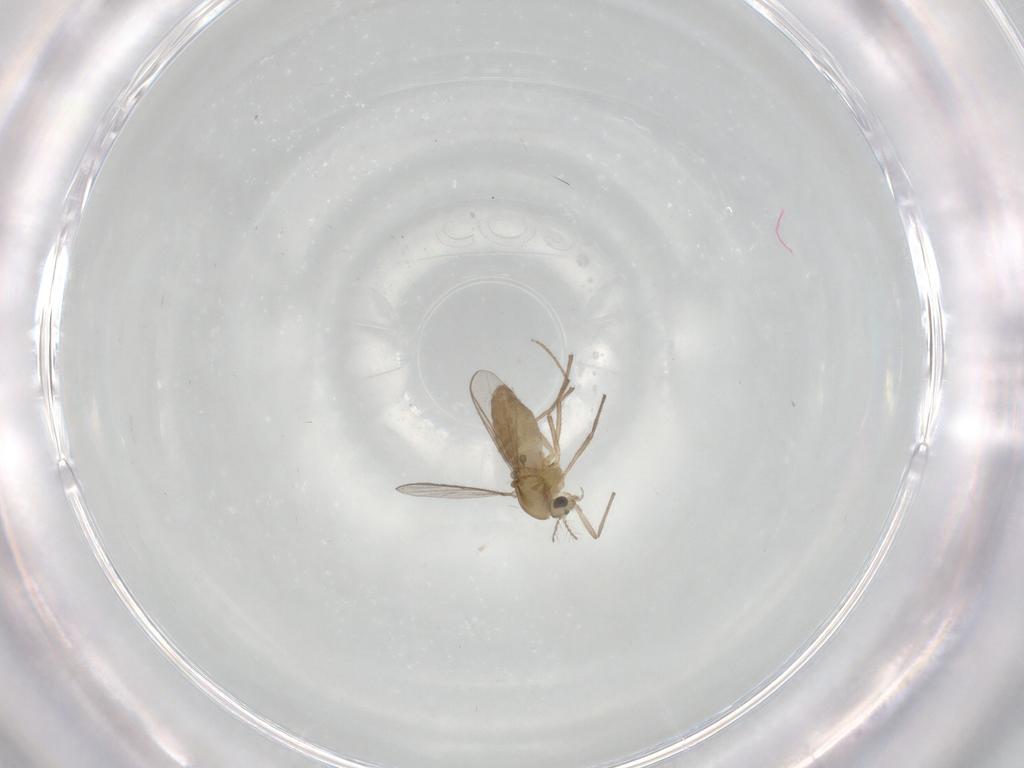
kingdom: Animalia
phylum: Arthropoda
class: Insecta
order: Diptera
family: Chironomidae
